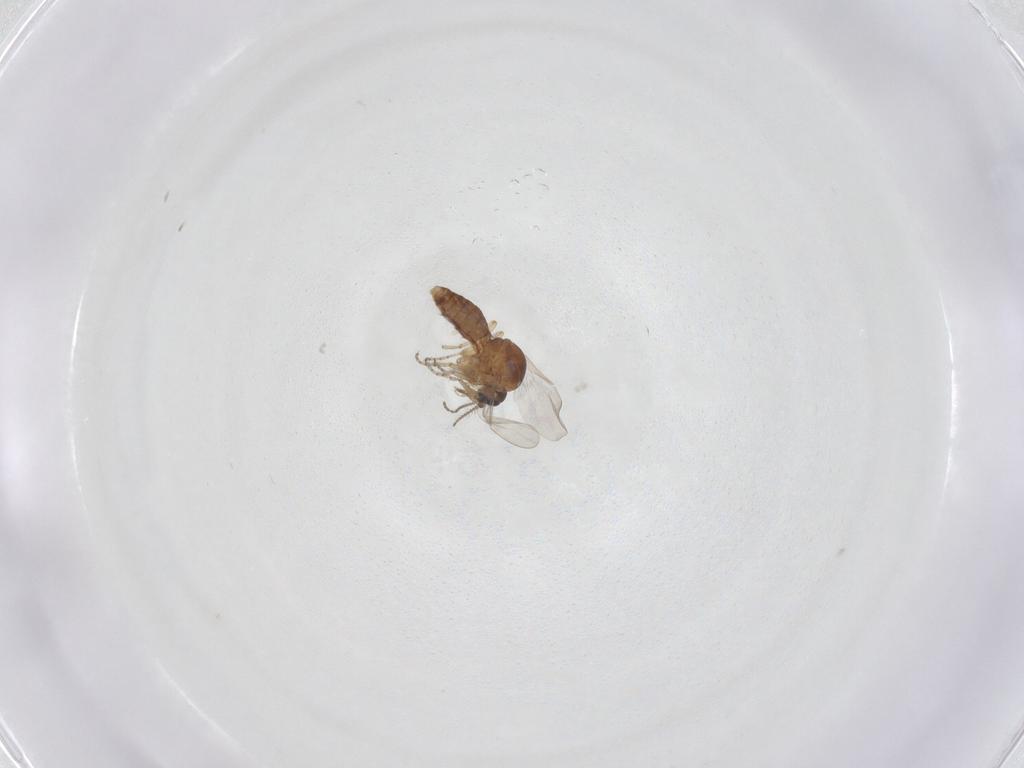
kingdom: Animalia
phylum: Arthropoda
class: Insecta
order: Diptera
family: Ceratopogonidae
